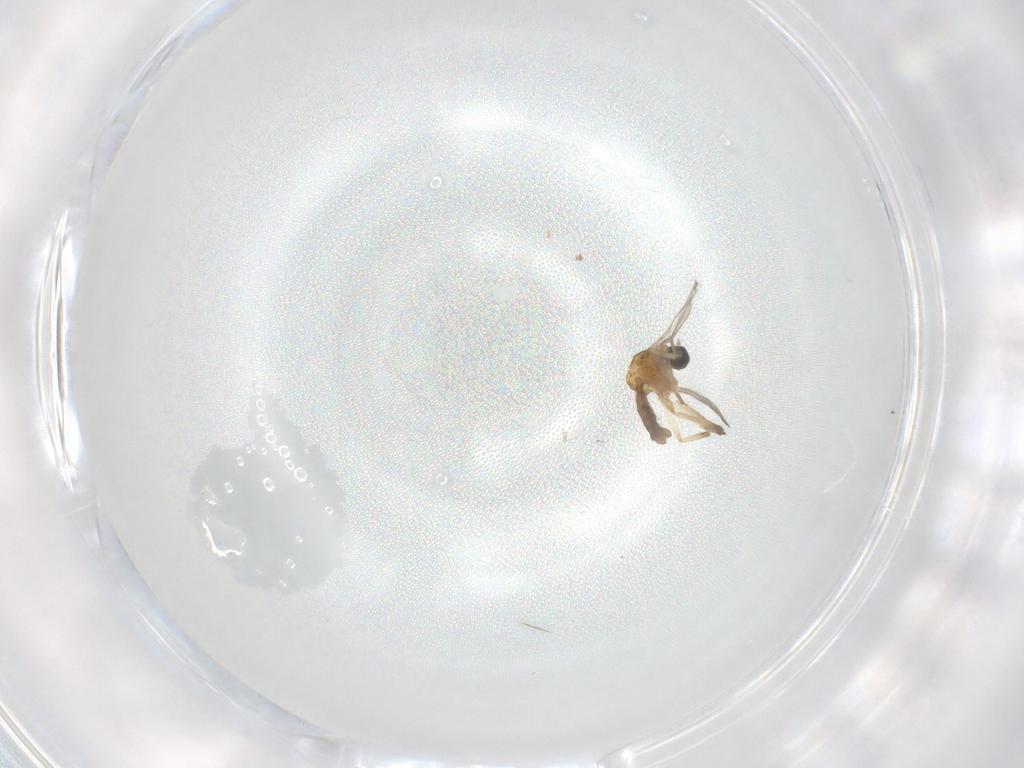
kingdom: Animalia
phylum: Arthropoda
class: Insecta
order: Diptera
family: Ceratopogonidae
